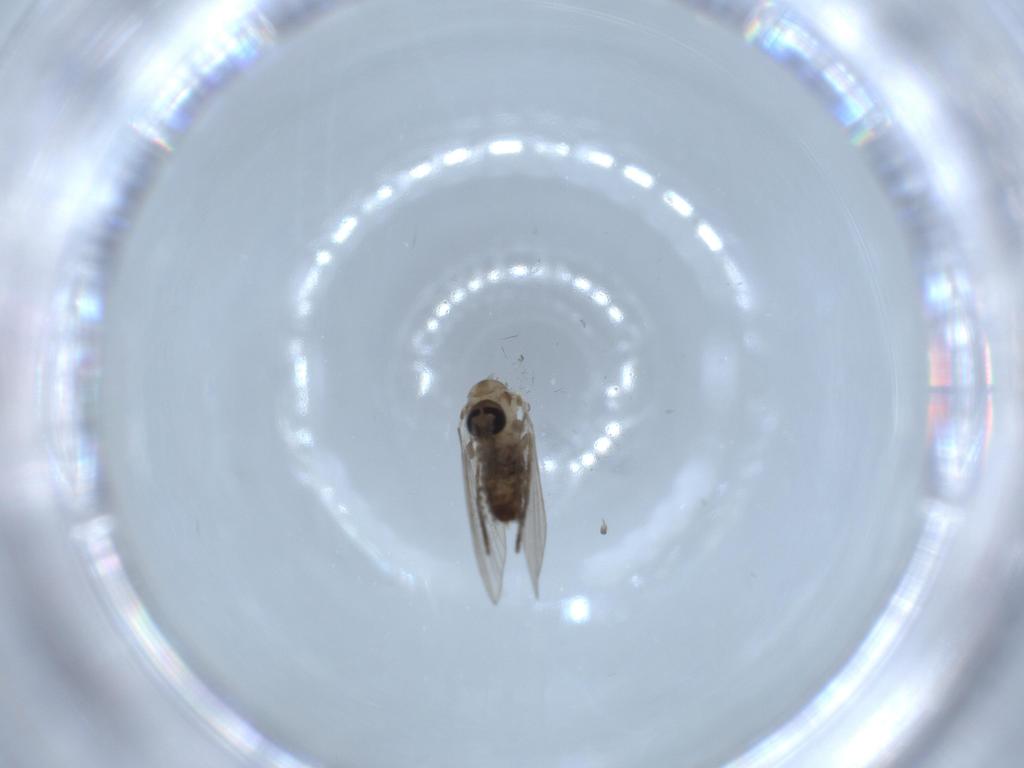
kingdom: Animalia
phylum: Arthropoda
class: Insecta
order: Diptera
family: Psychodidae
